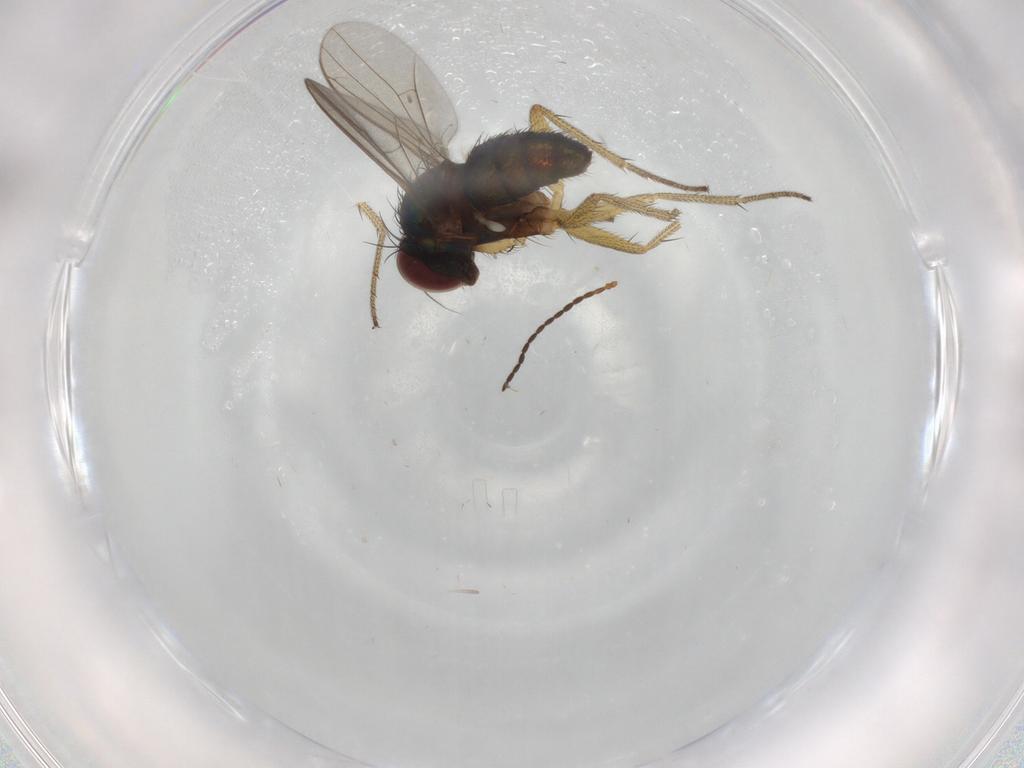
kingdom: Animalia
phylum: Arthropoda
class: Insecta
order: Diptera
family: Dolichopodidae
